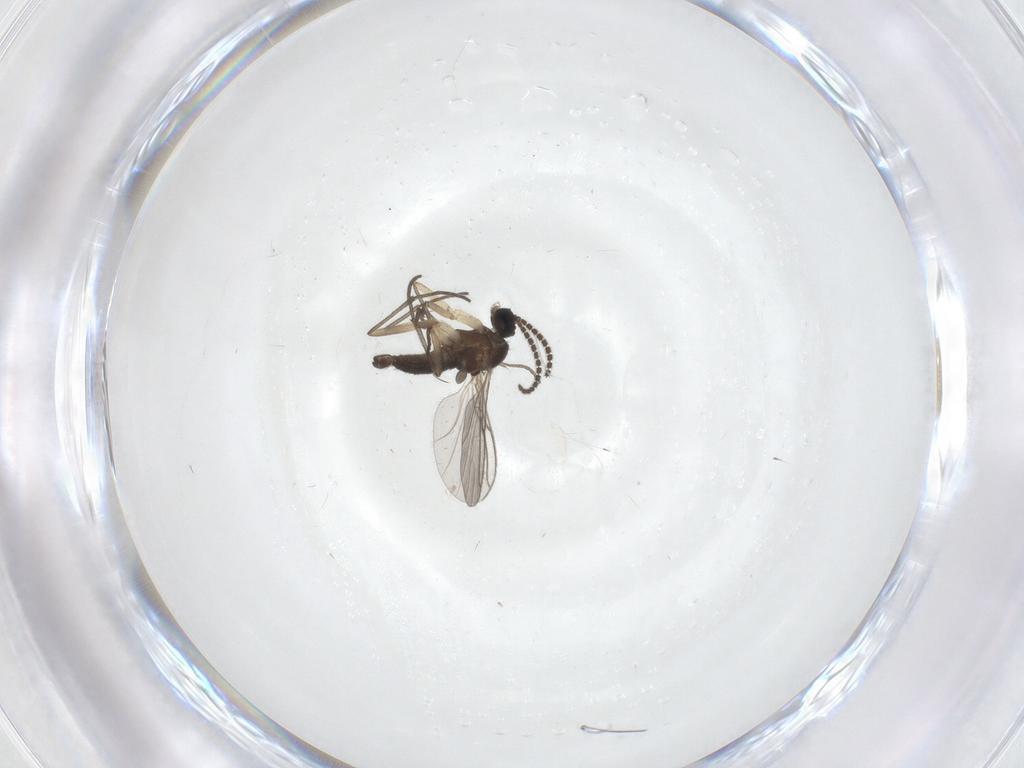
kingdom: Animalia
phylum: Arthropoda
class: Insecta
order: Diptera
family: Sciaridae
